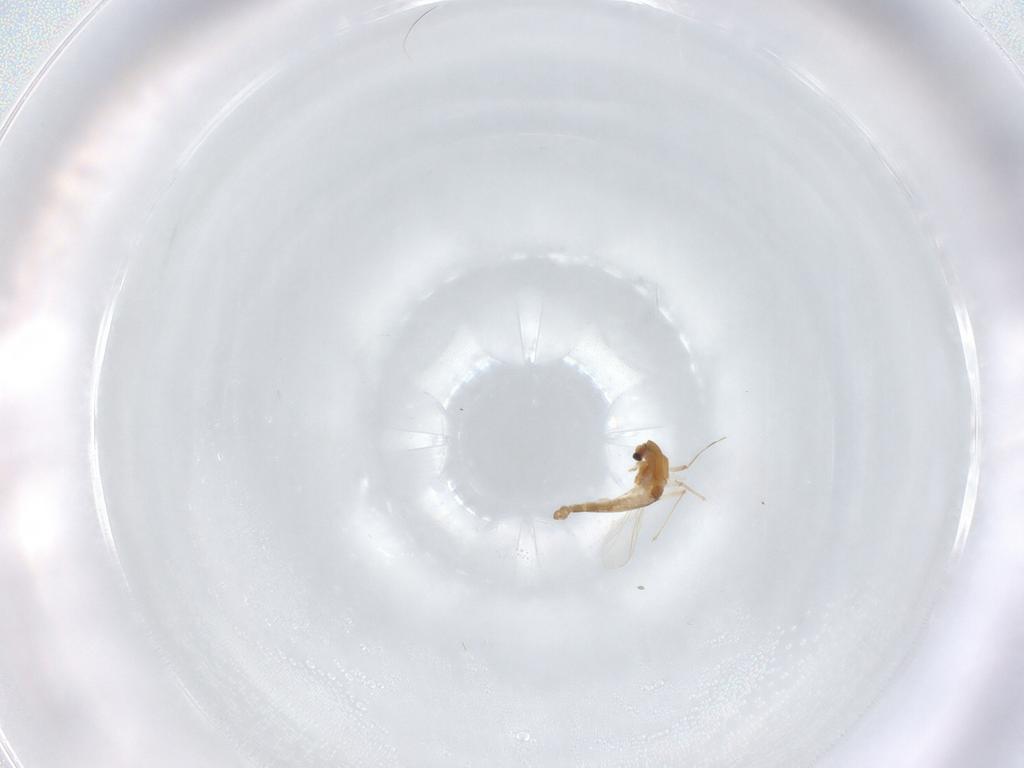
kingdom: Animalia
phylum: Arthropoda
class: Insecta
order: Diptera
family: Chironomidae
